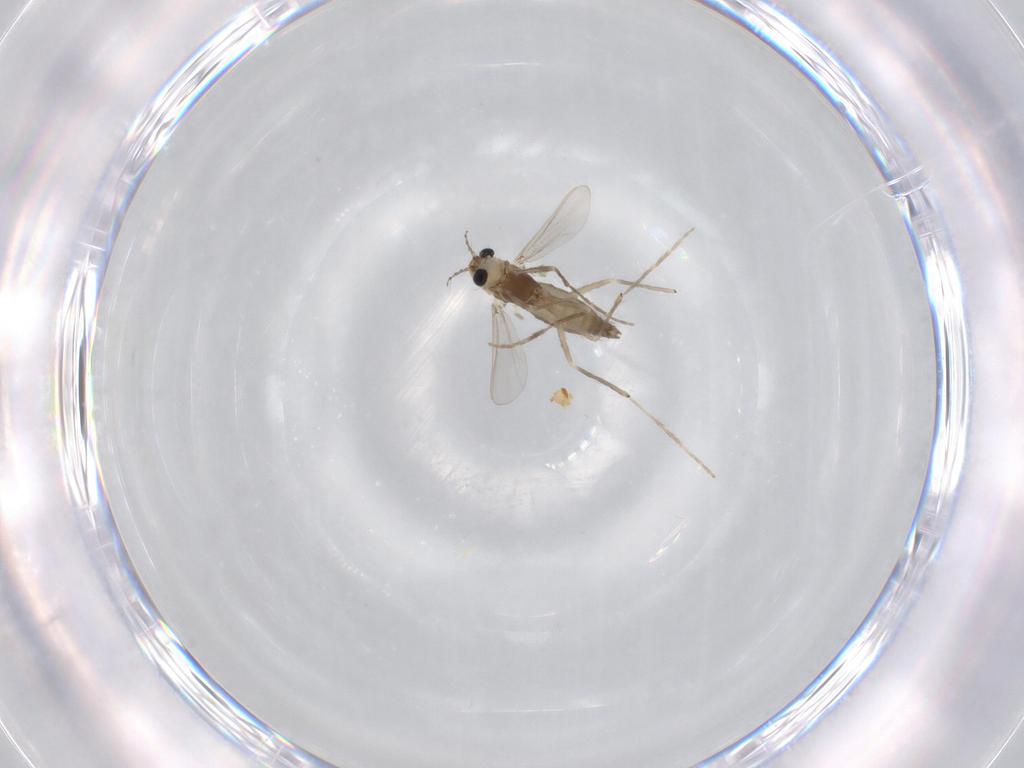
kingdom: Animalia
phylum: Arthropoda
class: Insecta
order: Diptera
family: Chironomidae
